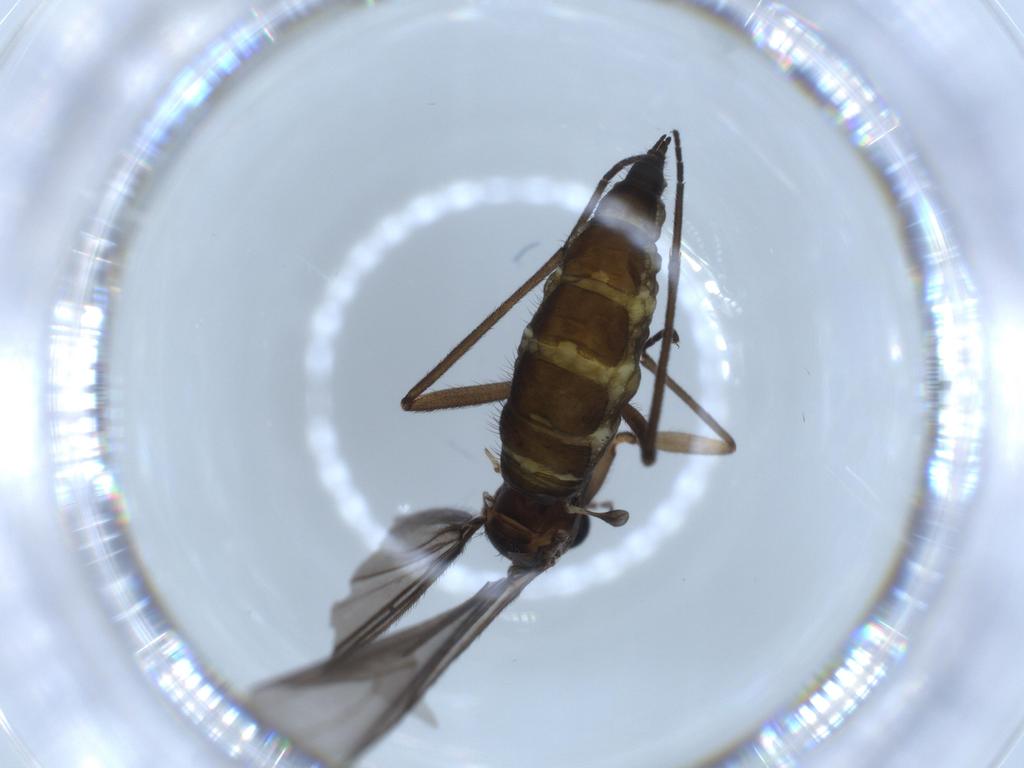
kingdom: Animalia
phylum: Arthropoda
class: Insecta
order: Diptera
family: Sciaridae
